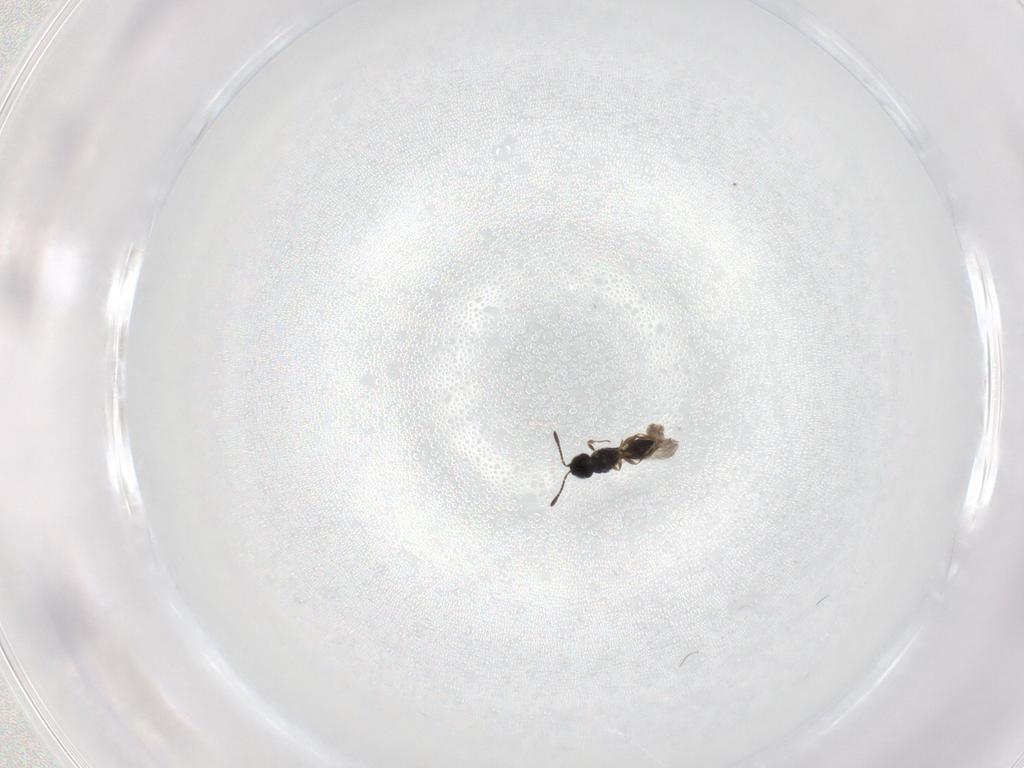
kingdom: Animalia
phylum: Arthropoda
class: Insecta
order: Hymenoptera
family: Scelionidae
